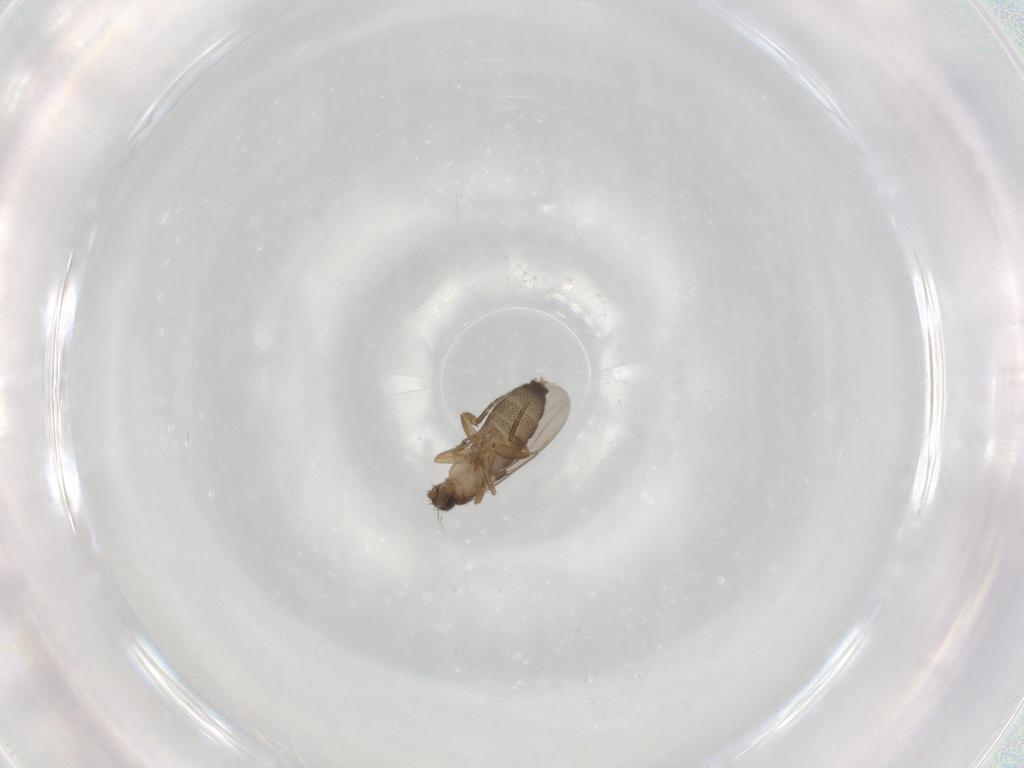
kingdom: Animalia
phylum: Arthropoda
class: Insecta
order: Diptera
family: Phoridae
